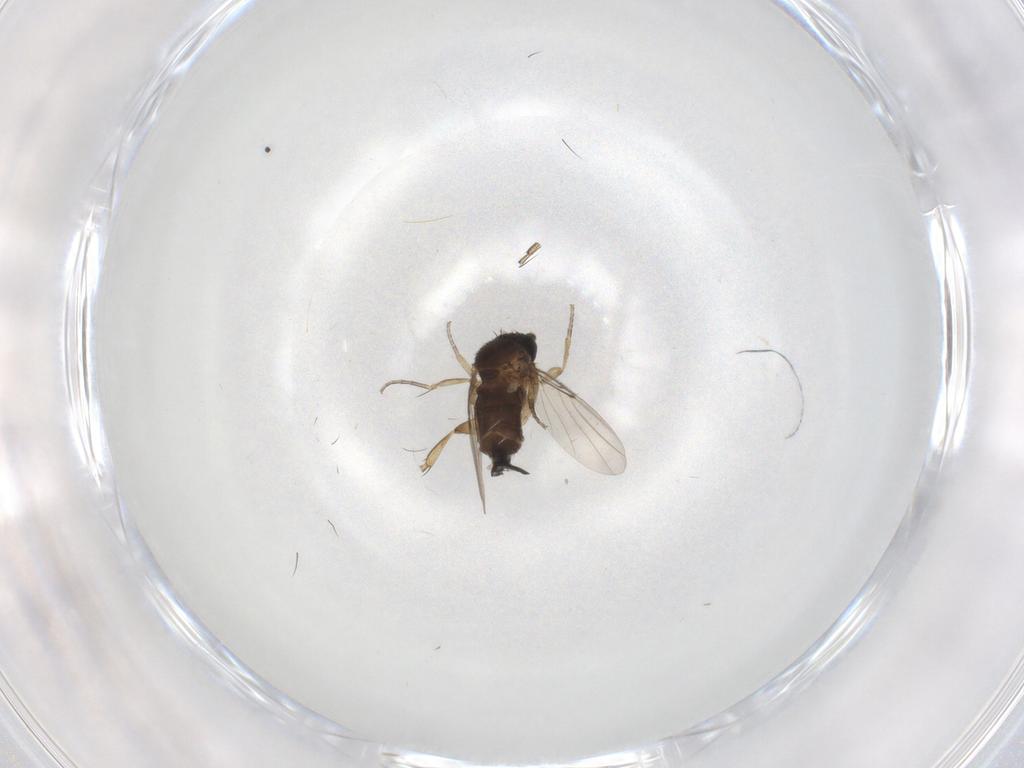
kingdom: Animalia
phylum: Arthropoda
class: Insecta
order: Diptera
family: Phoridae
